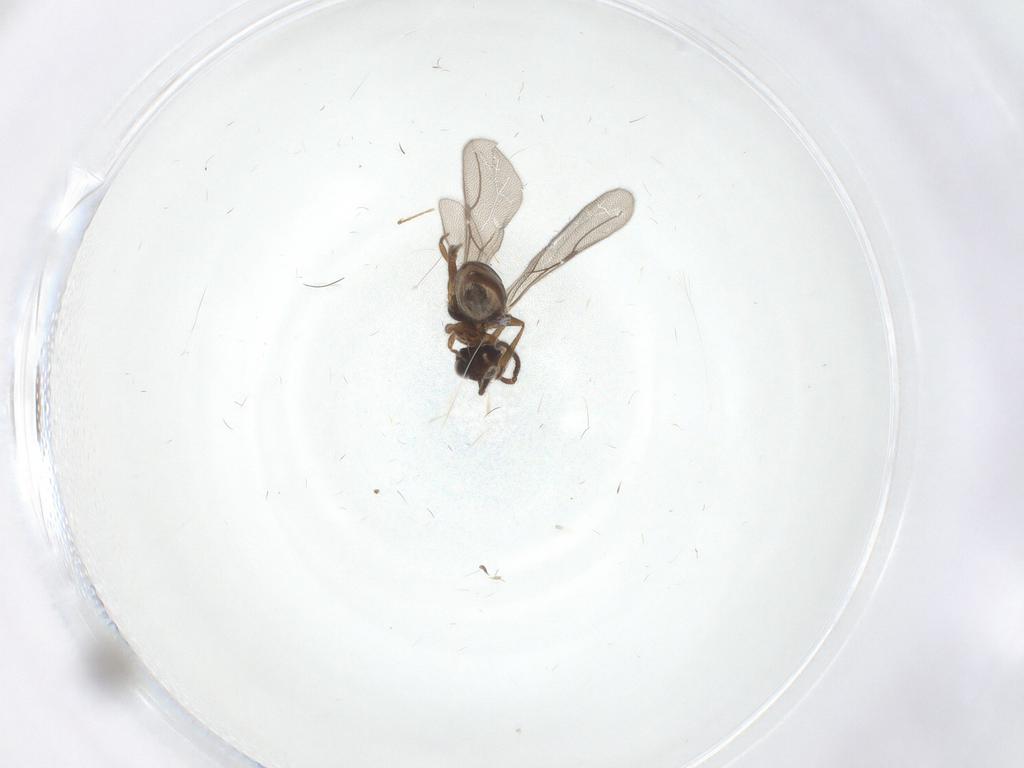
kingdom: Animalia
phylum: Arthropoda
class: Insecta
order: Hymenoptera
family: Bethylidae
